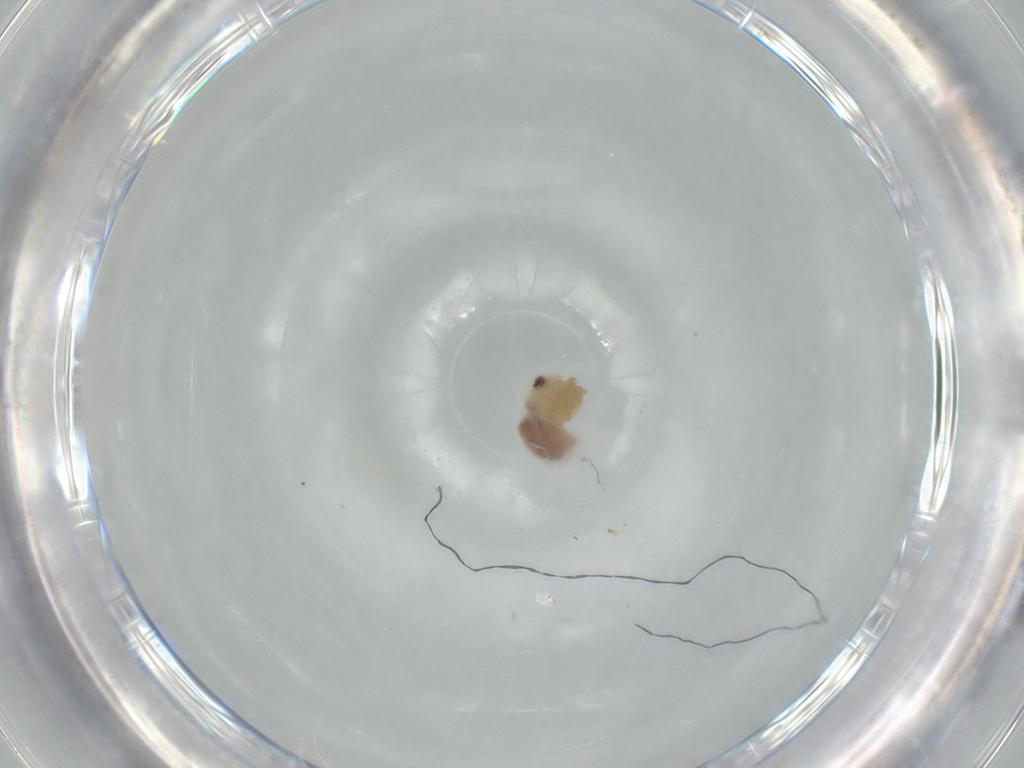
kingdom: Animalia
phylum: Arthropoda
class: Arachnida
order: Araneae
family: Pholcidae
